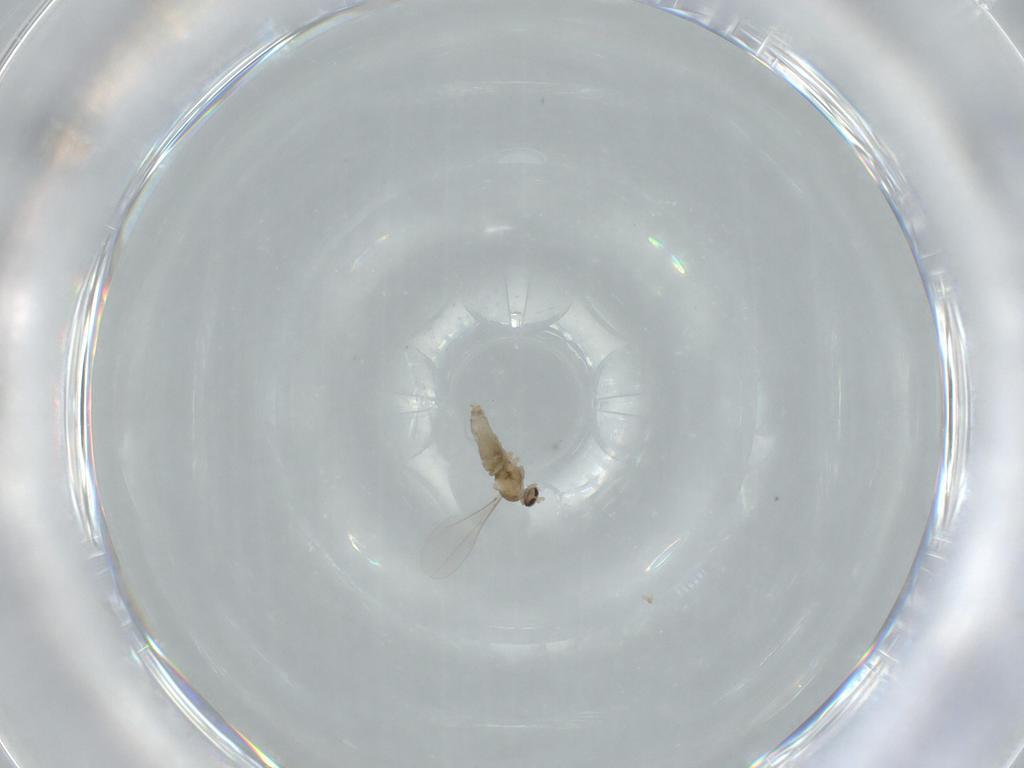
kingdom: Animalia
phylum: Arthropoda
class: Insecta
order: Diptera
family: Cecidomyiidae
